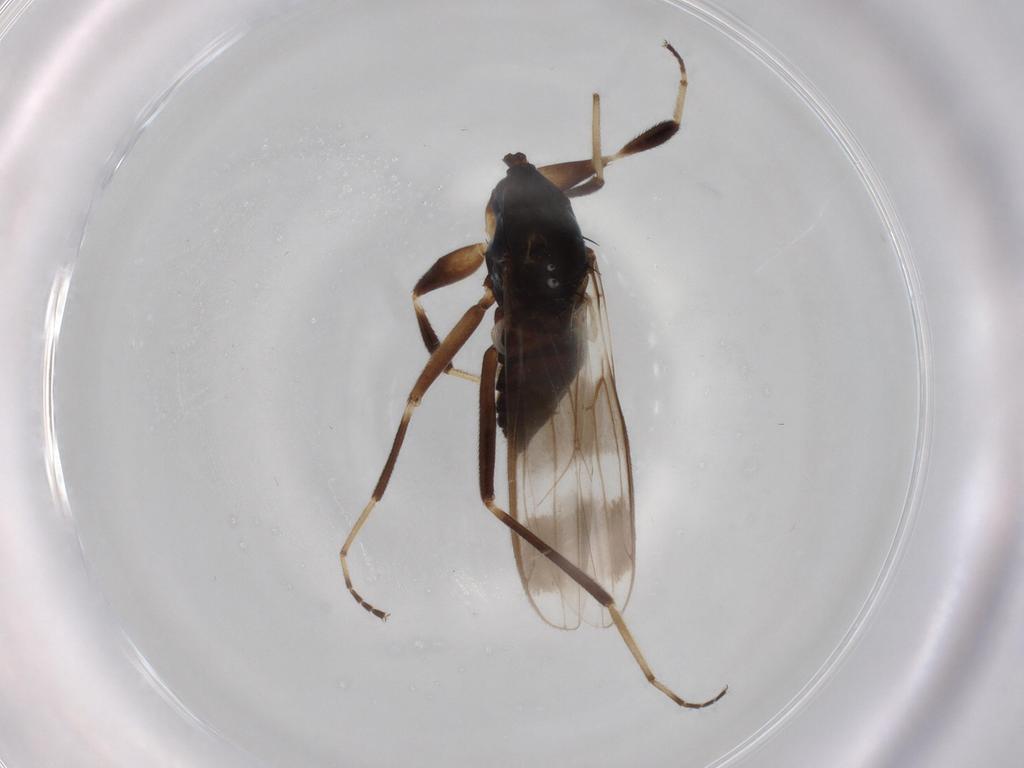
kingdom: Animalia
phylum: Arthropoda
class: Insecta
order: Diptera
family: Hybotidae
